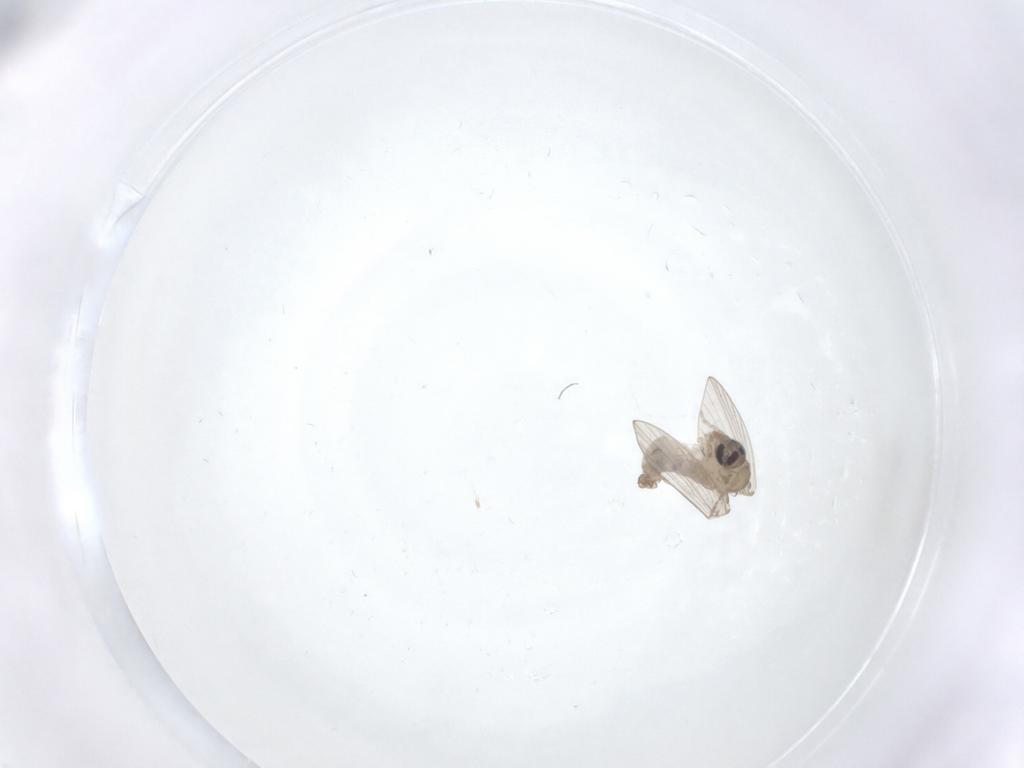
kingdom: Animalia
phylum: Arthropoda
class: Insecta
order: Diptera
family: Psychodidae
